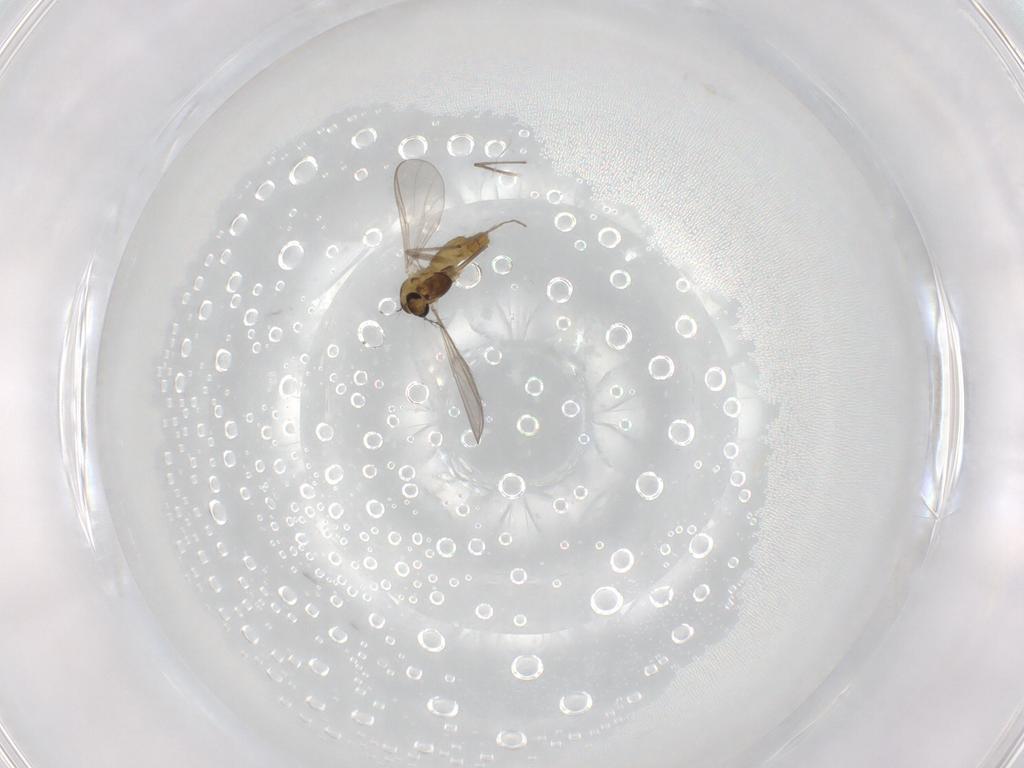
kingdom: Animalia
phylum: Arthropoda
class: Insecta
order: Diptera
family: Chironomidae
